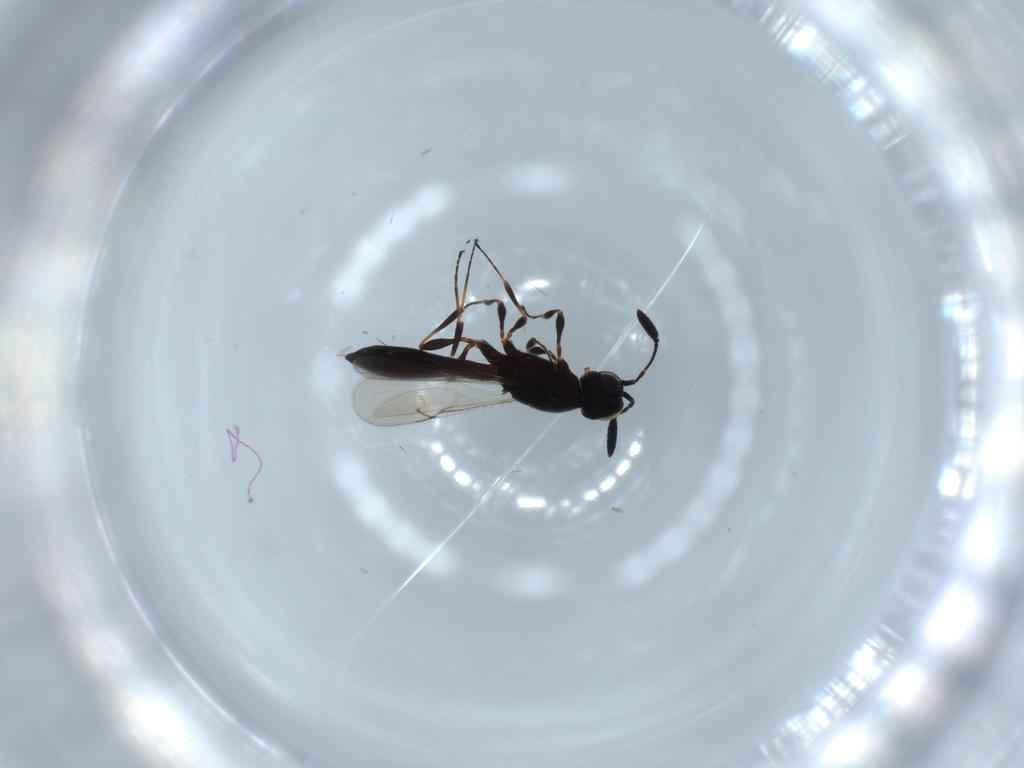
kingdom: Animalia
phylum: Arthropoda
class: Insecta
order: Hymenoptera
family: Scelionidae
